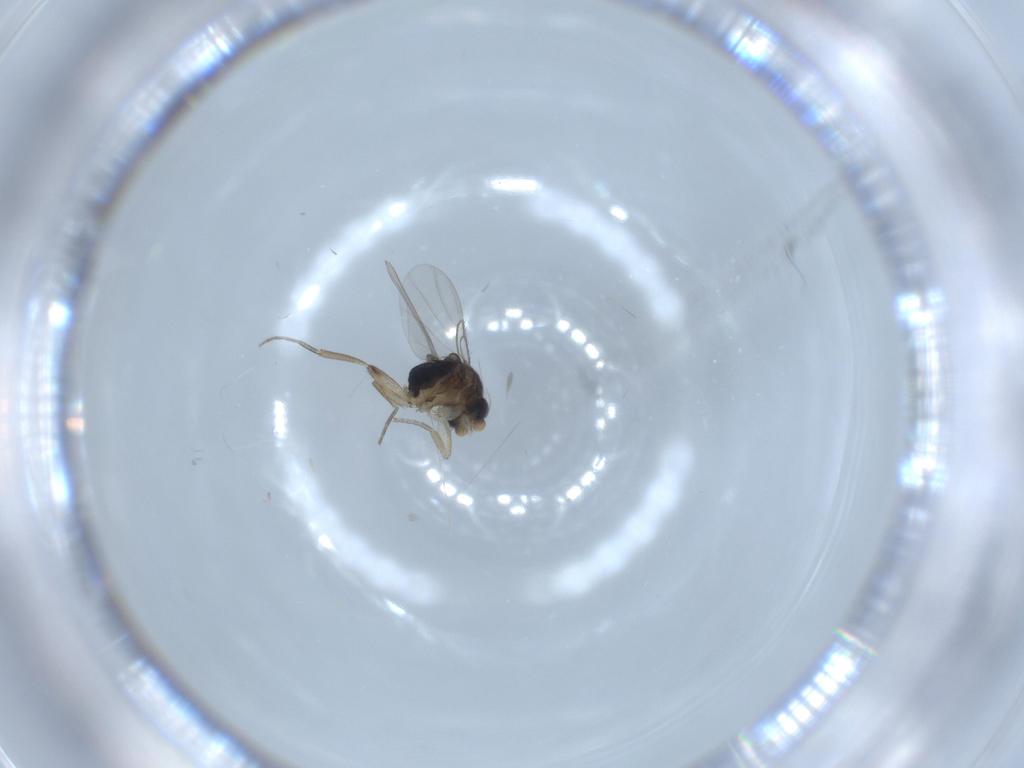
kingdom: Animalia
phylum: Arthropoda
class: Insecta
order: Diptera
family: Phoridae
